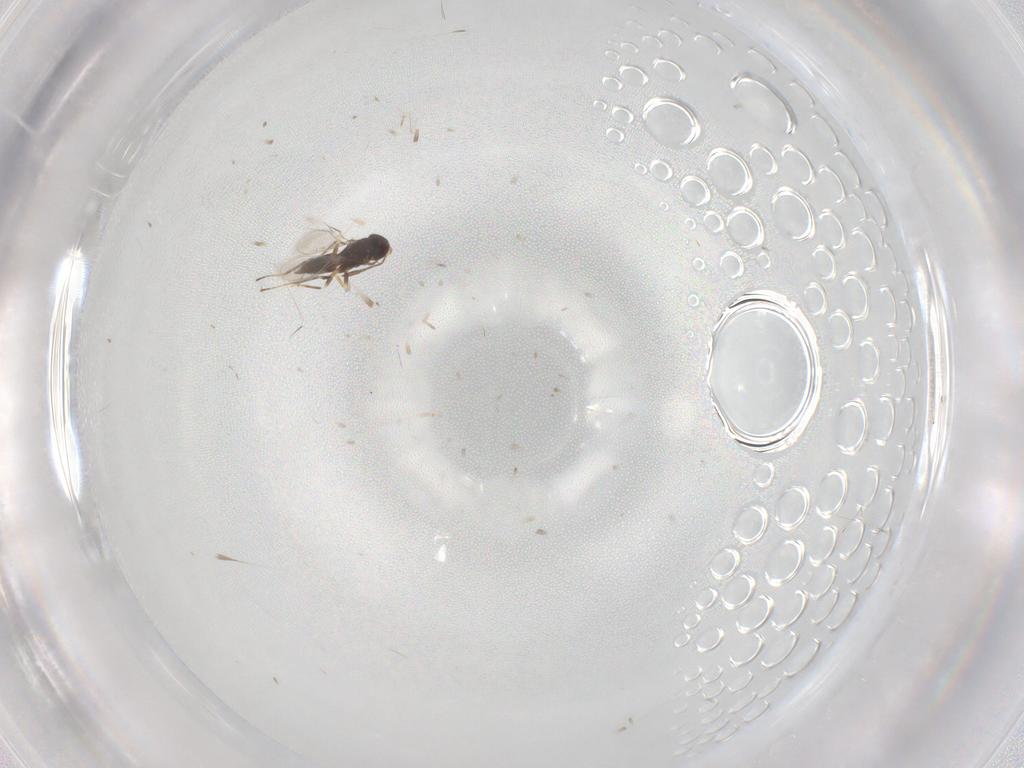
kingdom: Animalia
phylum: Arthropoda
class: Insecta
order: Hymenoptera
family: Mymaridae
